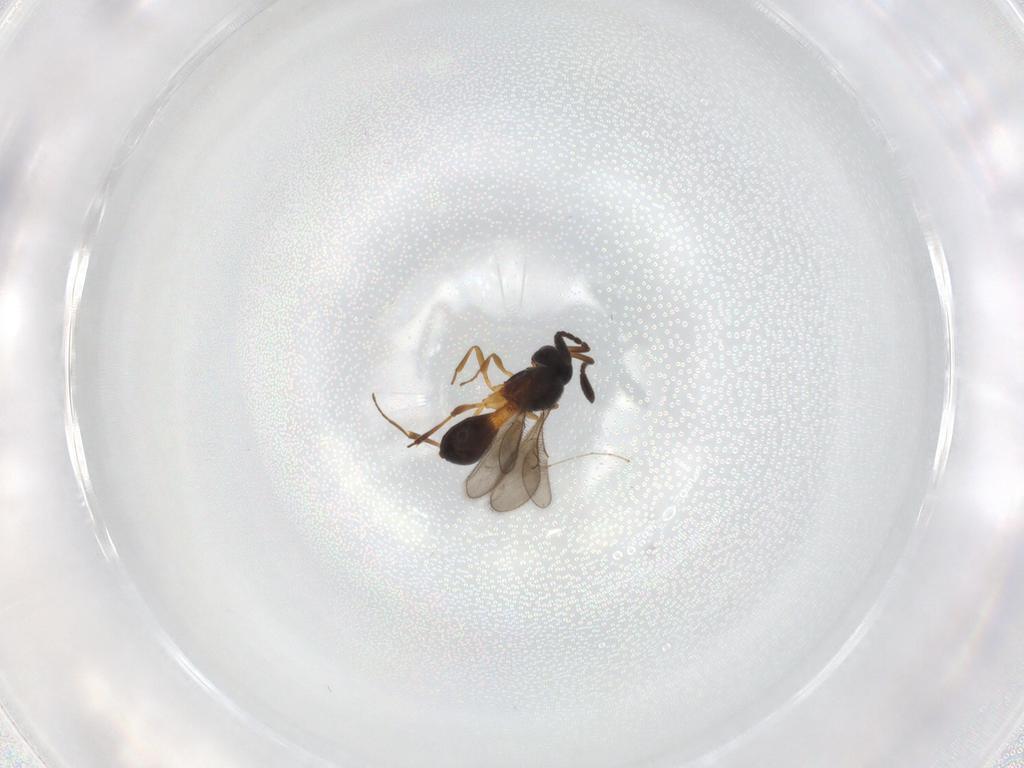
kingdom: Animalia
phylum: Arthropoda
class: Insecta
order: Hymenoptera
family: Scelionidae
